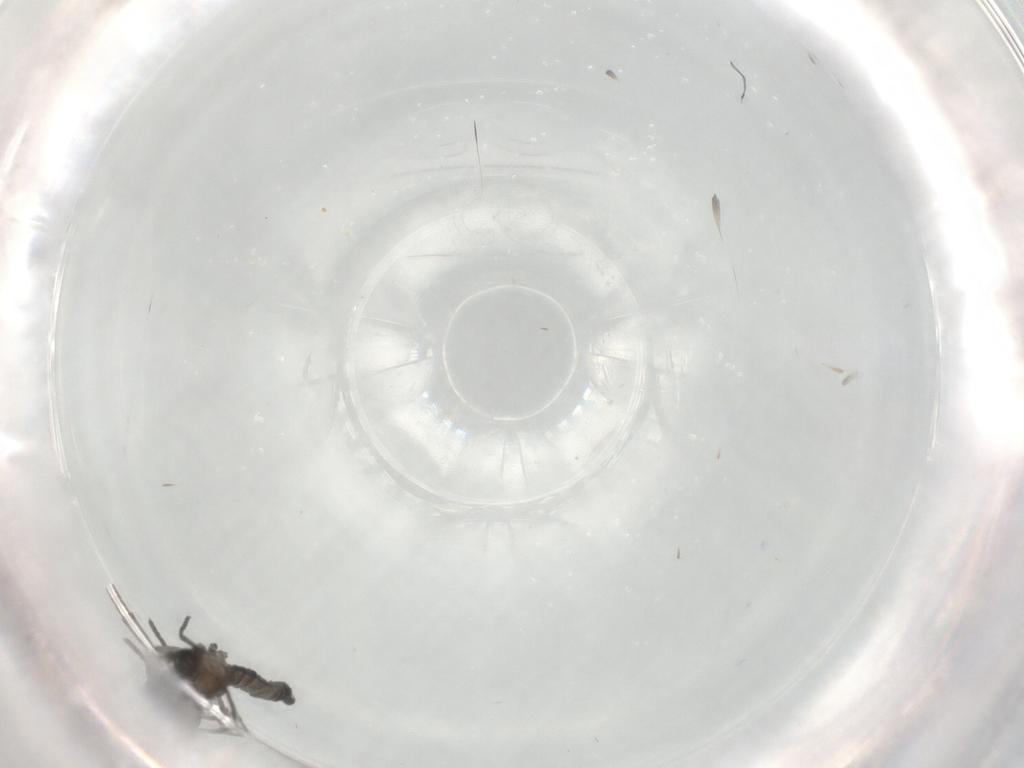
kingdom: Animalia
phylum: Arthropoda
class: Insecta
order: Diptera
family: Sciaridae
